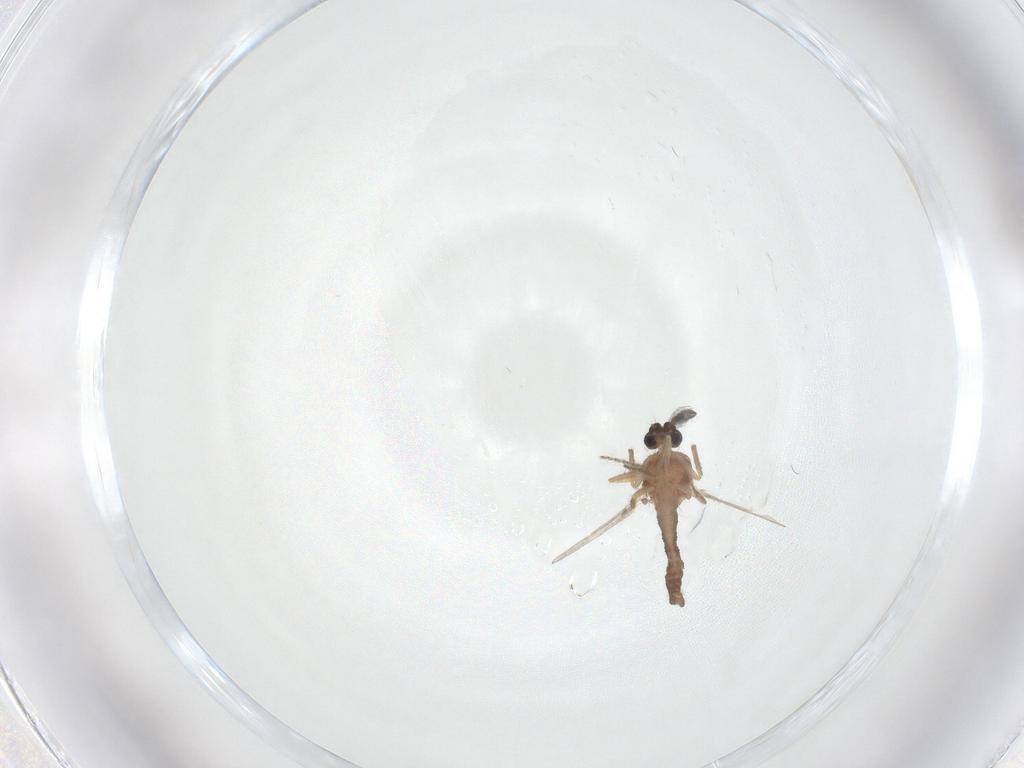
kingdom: Animalia
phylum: Arthropoda
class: Insecta
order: Diptera
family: Ceratopogonidae
